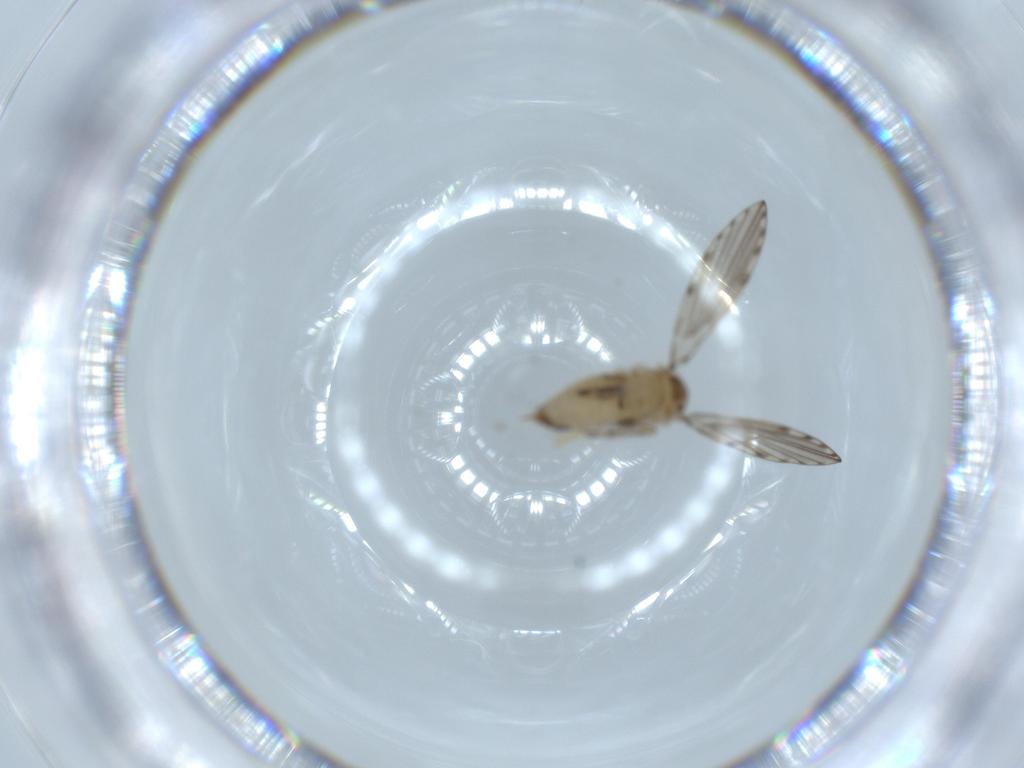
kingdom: Animalia
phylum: Arthropoda
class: Insecta
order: Diptera
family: Psychodidae
